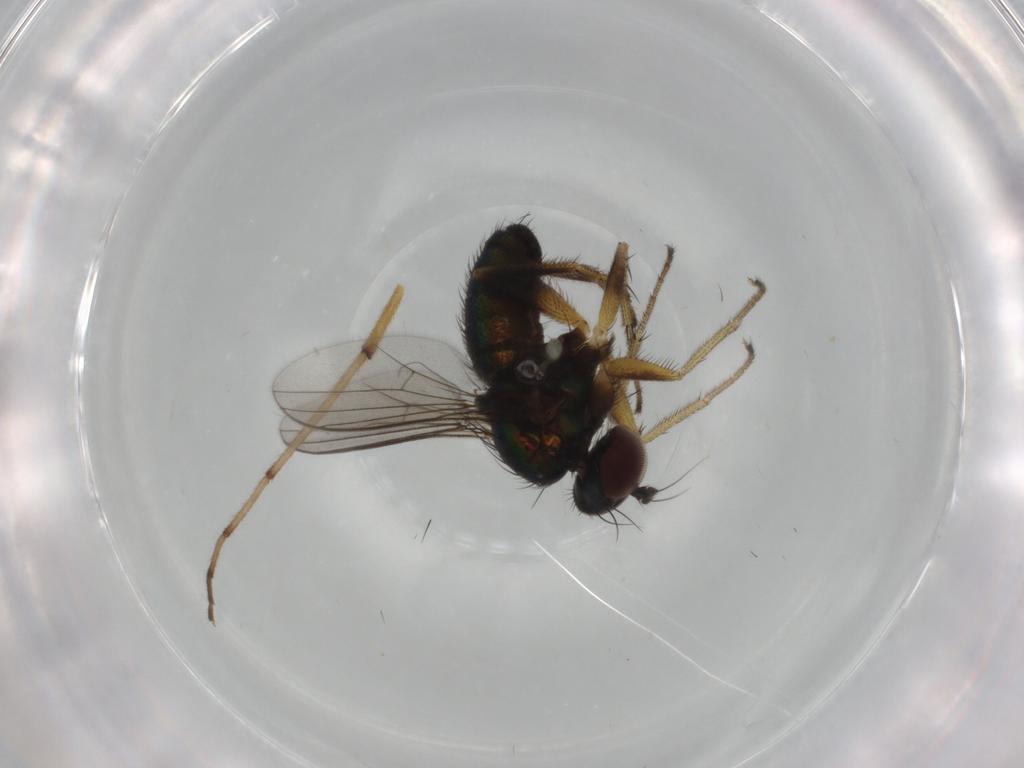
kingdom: Animalia
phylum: Arthropoda
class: Insecta
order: Diptera
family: Dolichopodidae
